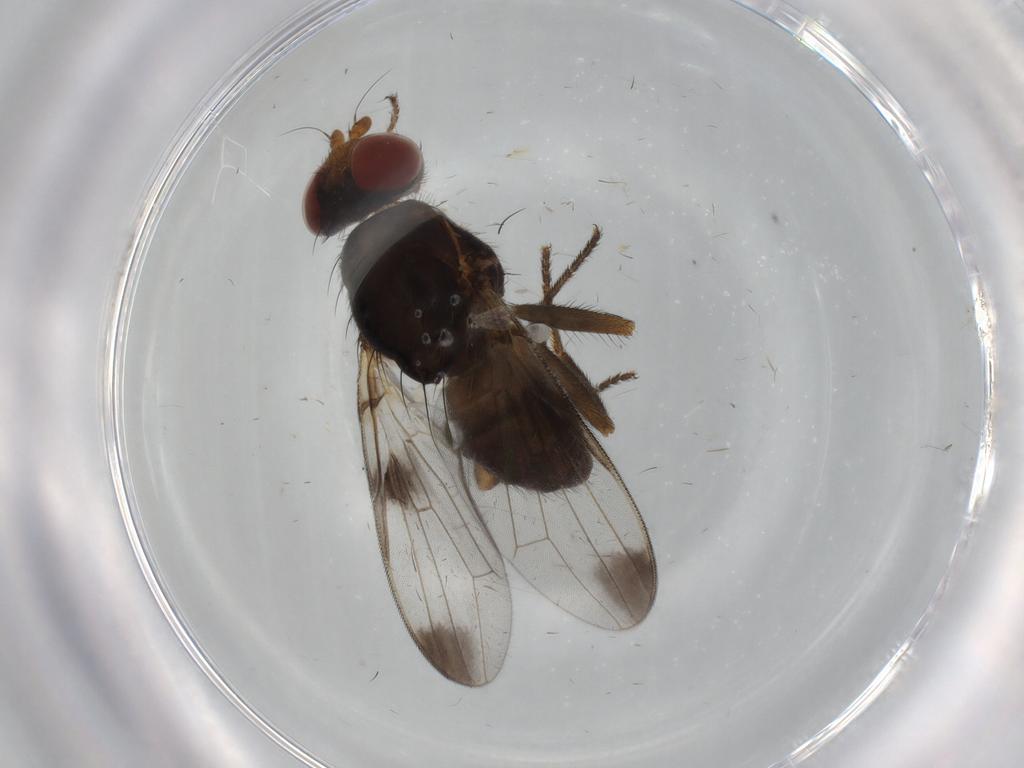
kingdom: Animalia
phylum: Arthropoda
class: Insecta
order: Diptera
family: Ulidiidae
